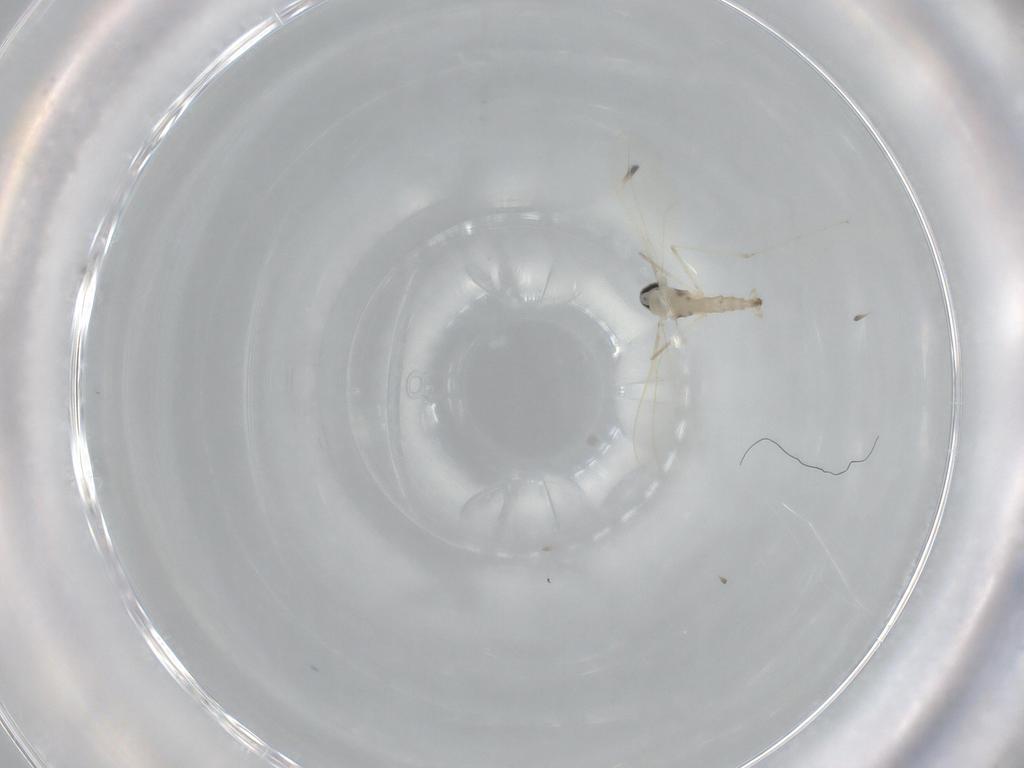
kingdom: Animalia
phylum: Arthropoda
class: Insecta
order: Diptera
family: Cecidomyiidae
